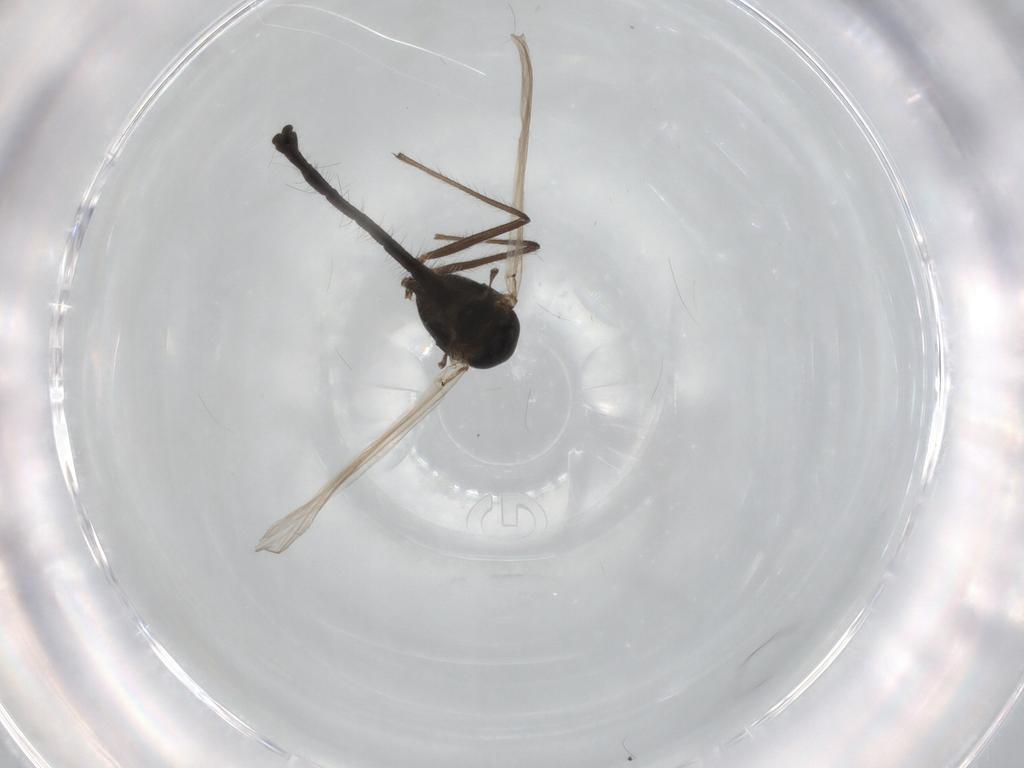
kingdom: Animalia
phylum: Arthropoda
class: Insecta
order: Diptera
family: Chironomidae
